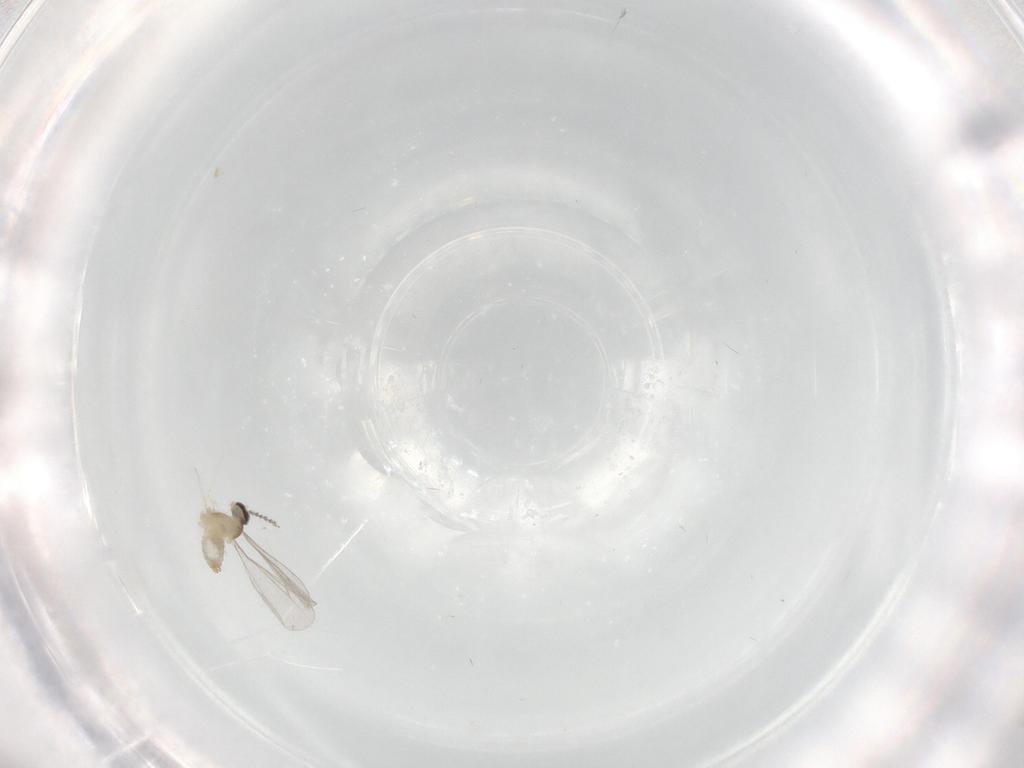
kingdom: Animalia
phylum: Arthropoda
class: Insecta
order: Diptera
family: Cecidomyiidae
